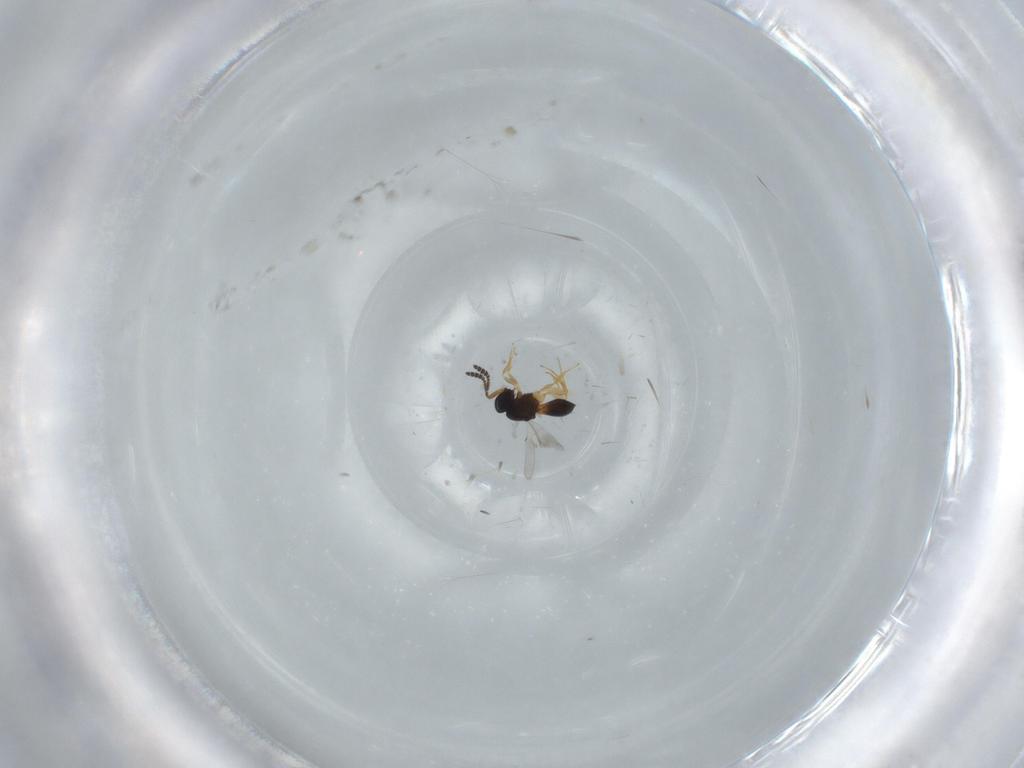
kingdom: Animalia
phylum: Arthropoda
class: Insecta
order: Hymenoptera
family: Scelionidae
